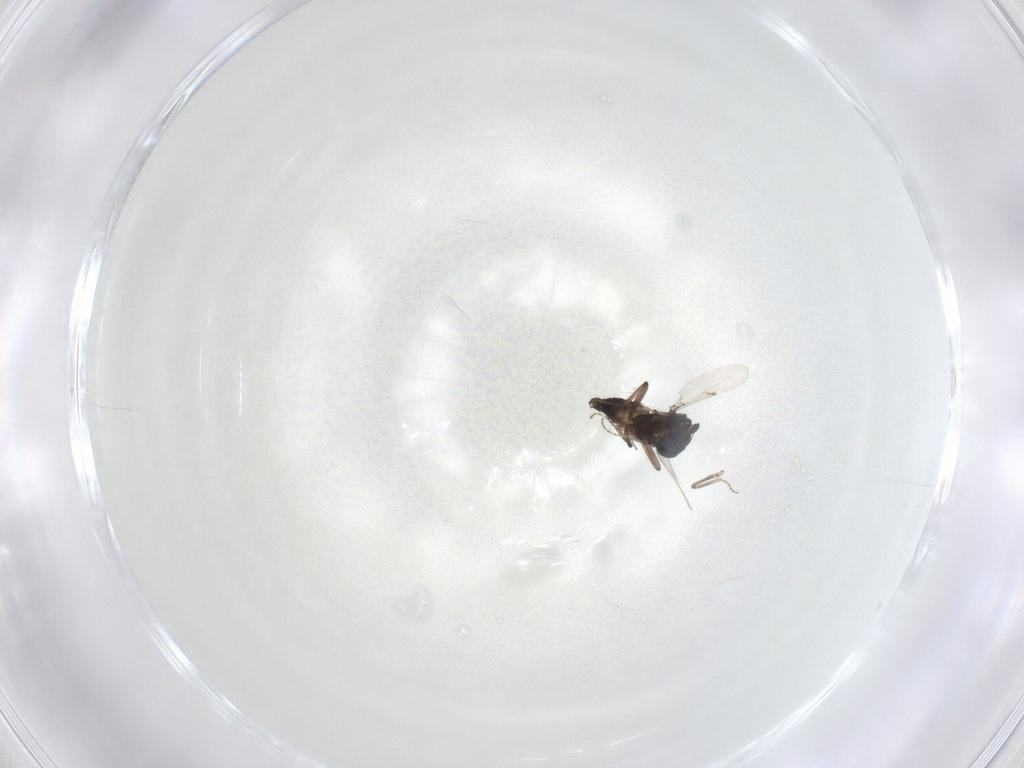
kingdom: Animalia
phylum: Arthropoda
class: Insecta
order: Diptera
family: Ceratopogonidae
